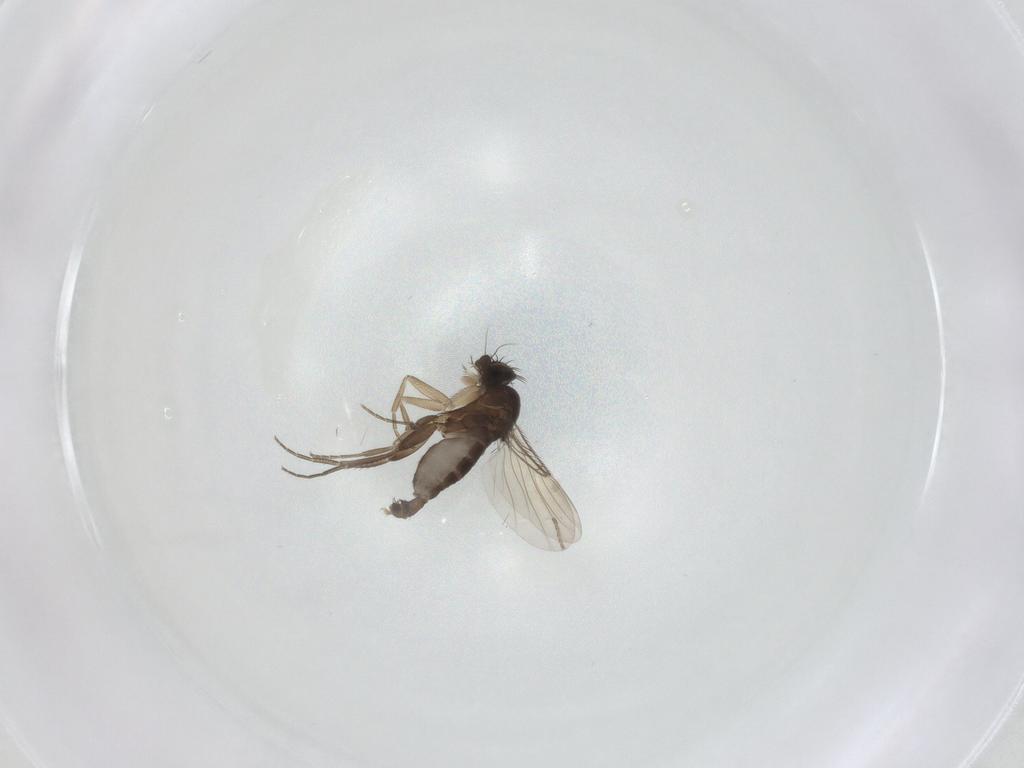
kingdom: Animalia
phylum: Arthropoda
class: Insecta
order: Diptera
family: Phoridae
